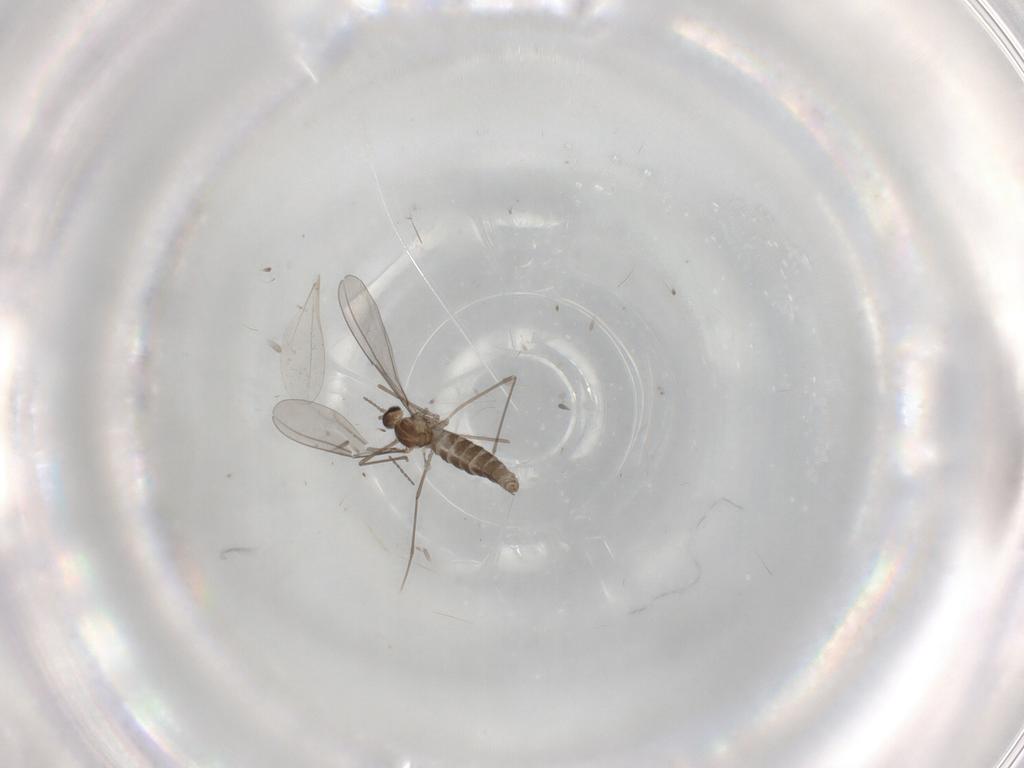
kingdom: Animalia
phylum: Arthropoda
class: Insecta
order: Diptera
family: Cecidomyiidae
